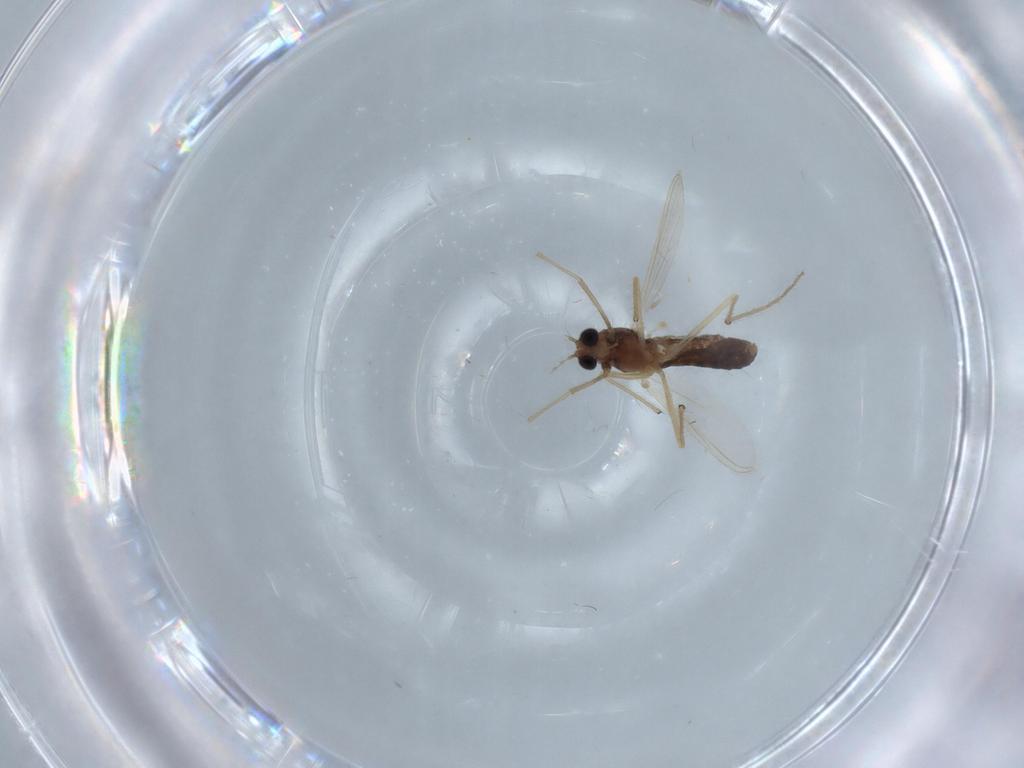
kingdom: Animalia
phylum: Arthropoda
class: Insecta
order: Diptera
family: Chironomidae
